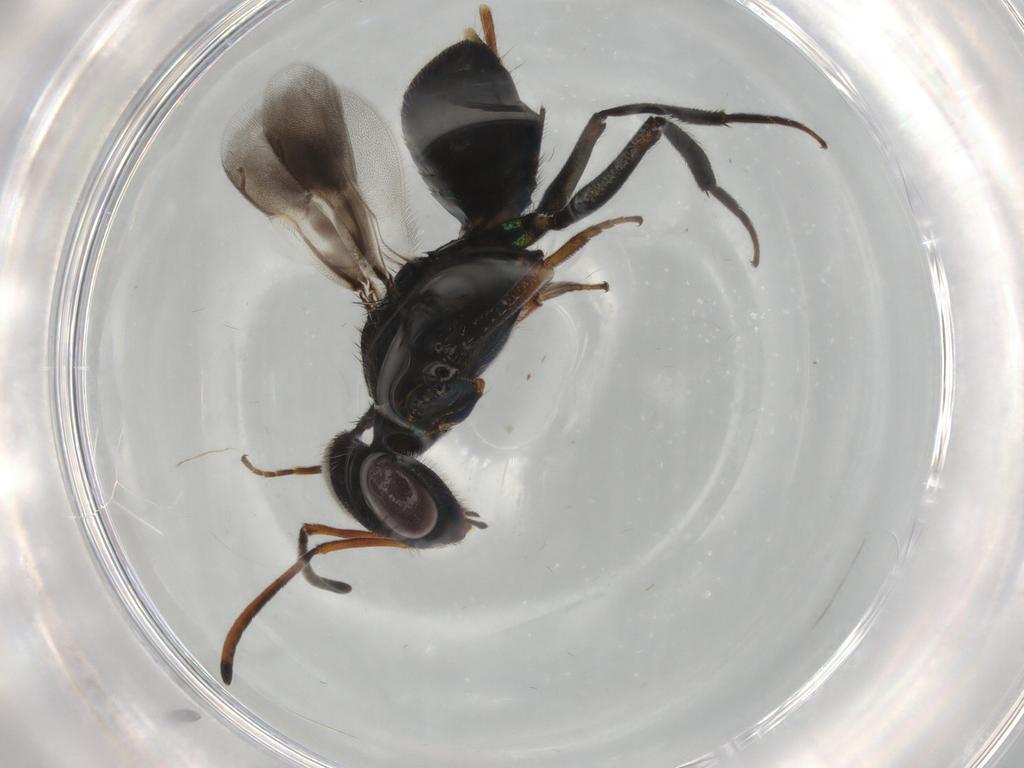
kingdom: Animalia
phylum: Arthropoda
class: Insecta
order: Hymenoptera
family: Eupelmidae
